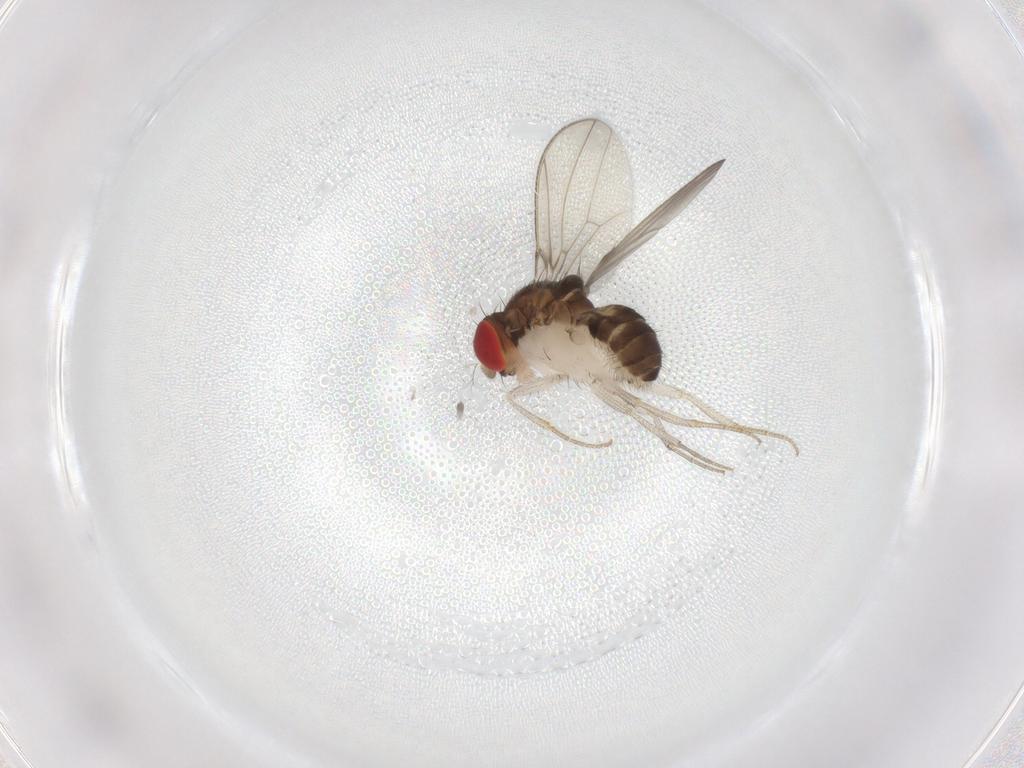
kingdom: Animalia
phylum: Arthropoda
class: Insecta
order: Diptera
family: Drosophilidae
